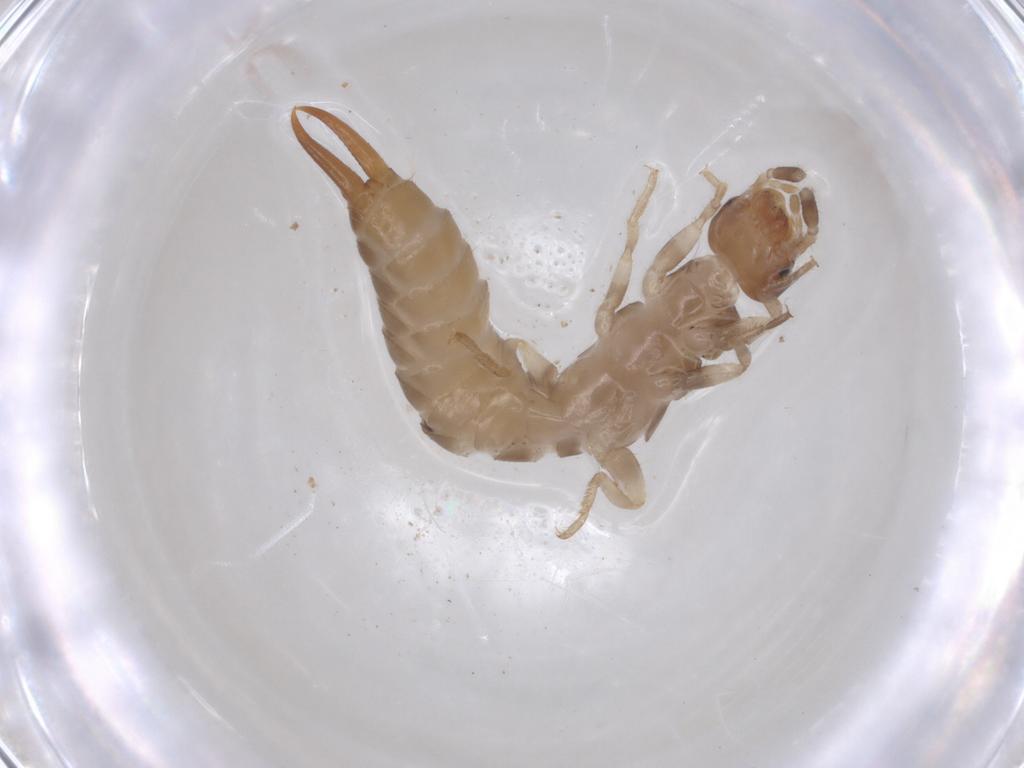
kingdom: Animalia
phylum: Arthropoda
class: Insecta
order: Dermaptera
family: Anisolabididae
